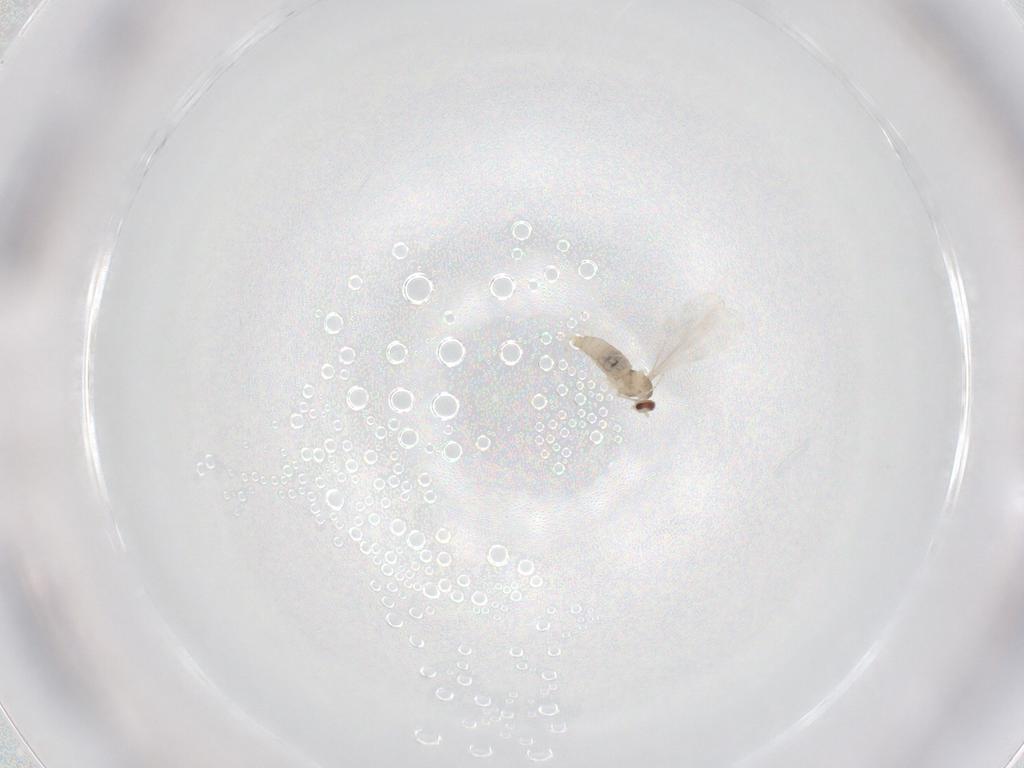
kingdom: Animalia
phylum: Arthropoda
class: Insecta
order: Diptera
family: Cecidomyiidae
